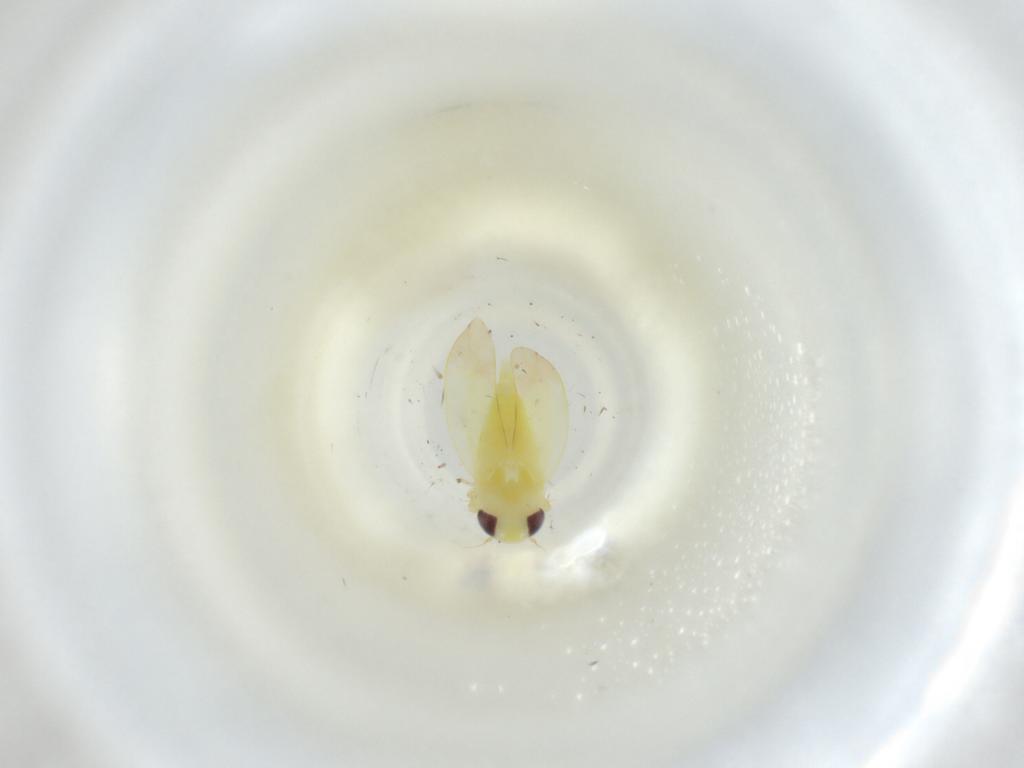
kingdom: Animalia
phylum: Arthropoda
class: Insecta
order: Hemiptera
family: Cicadellidae
